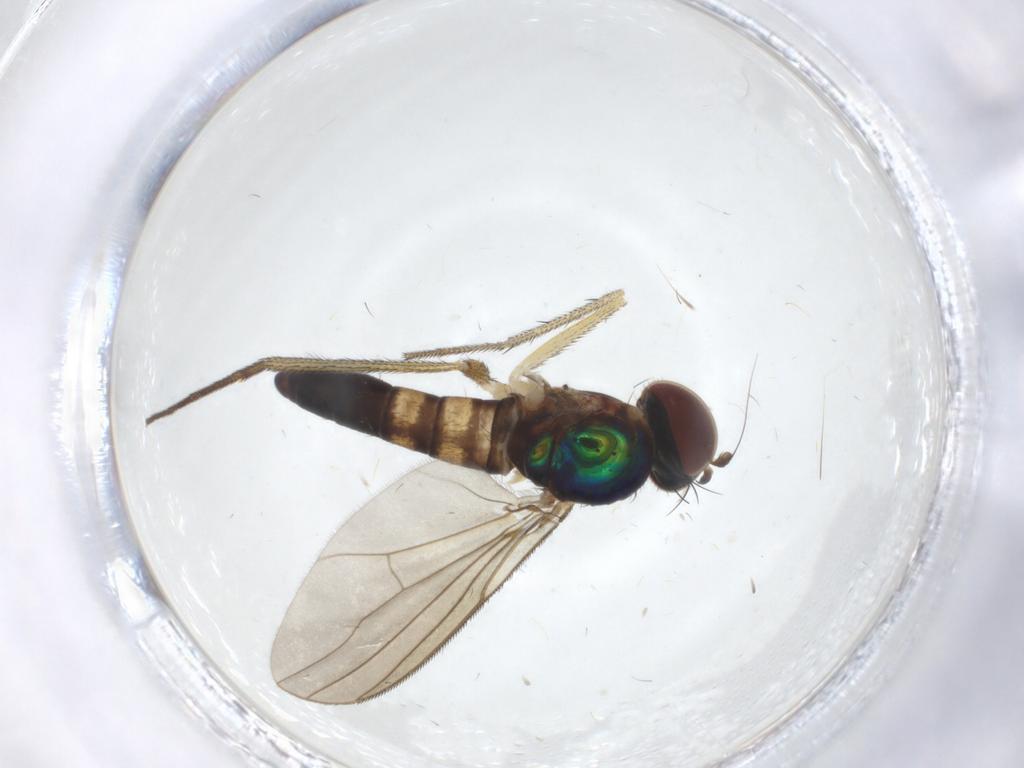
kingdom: Animalia
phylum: Arthropoda
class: Insecta
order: Diptera
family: Dolichopodidae
